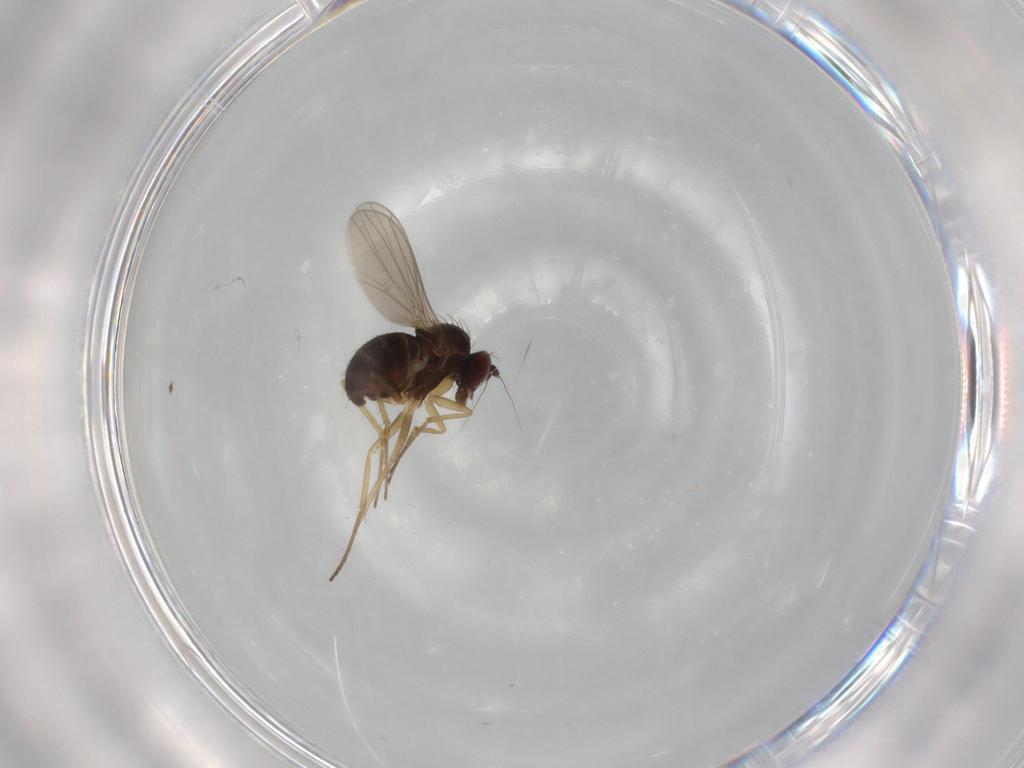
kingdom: Animalia
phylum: Arthropoda
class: Insecta
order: Diptera
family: Dolichopodidae
